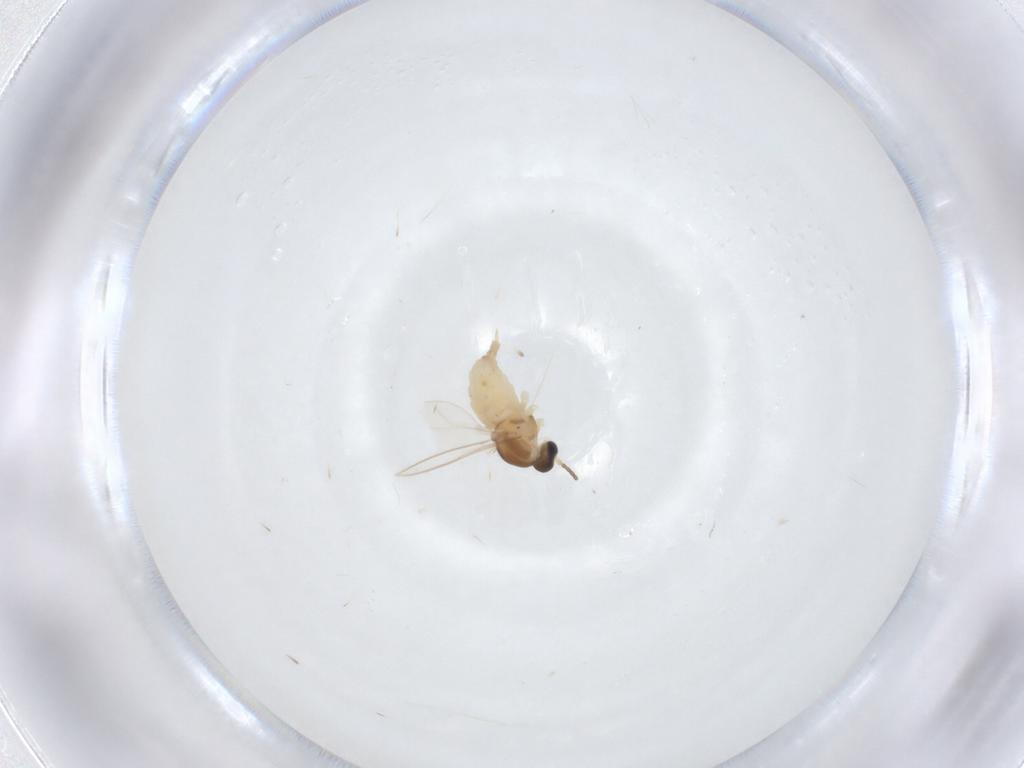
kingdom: Animalia
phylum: Arthropoda
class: Insecta
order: Diptera
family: Cecidomyiidae
